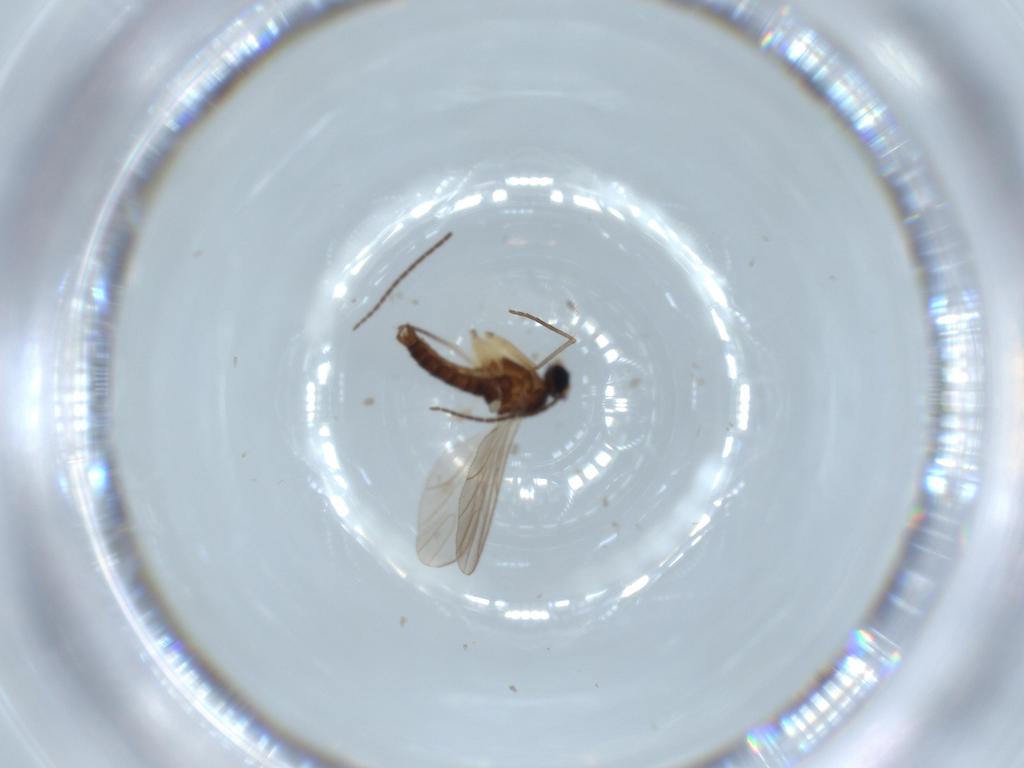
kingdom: Animalia
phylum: Arthropoda
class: Insecta
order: Diptera
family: Sciaridae
